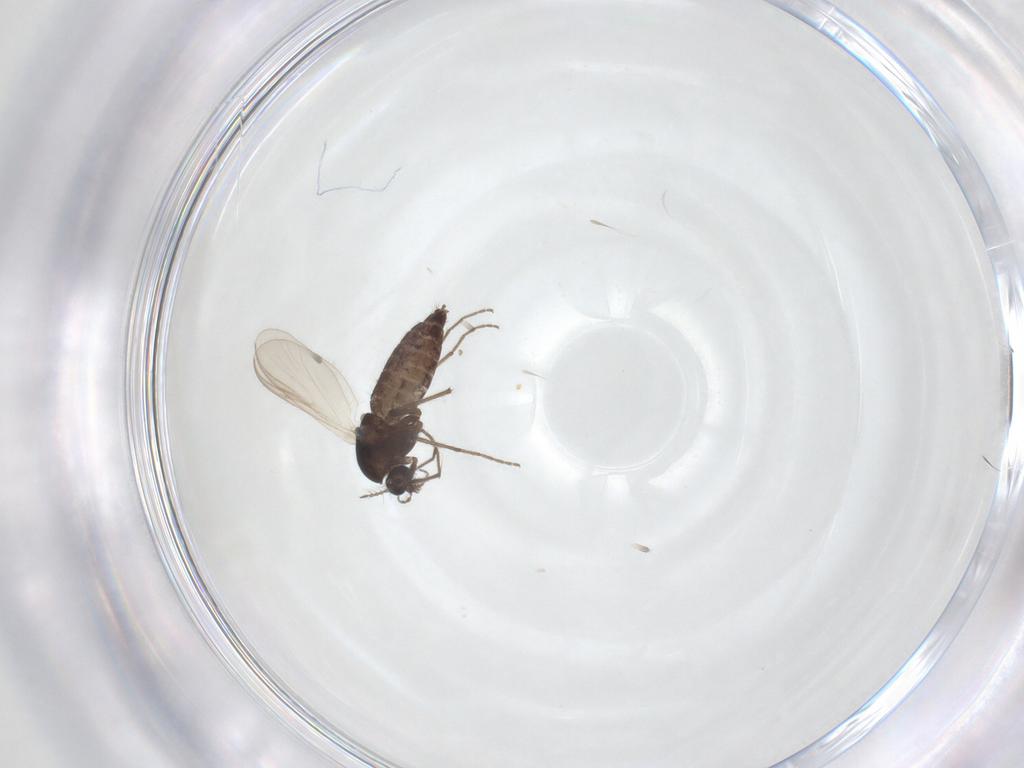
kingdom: Animalia
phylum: Arthropoda
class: Insecta
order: Diptera
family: Chironomidae
